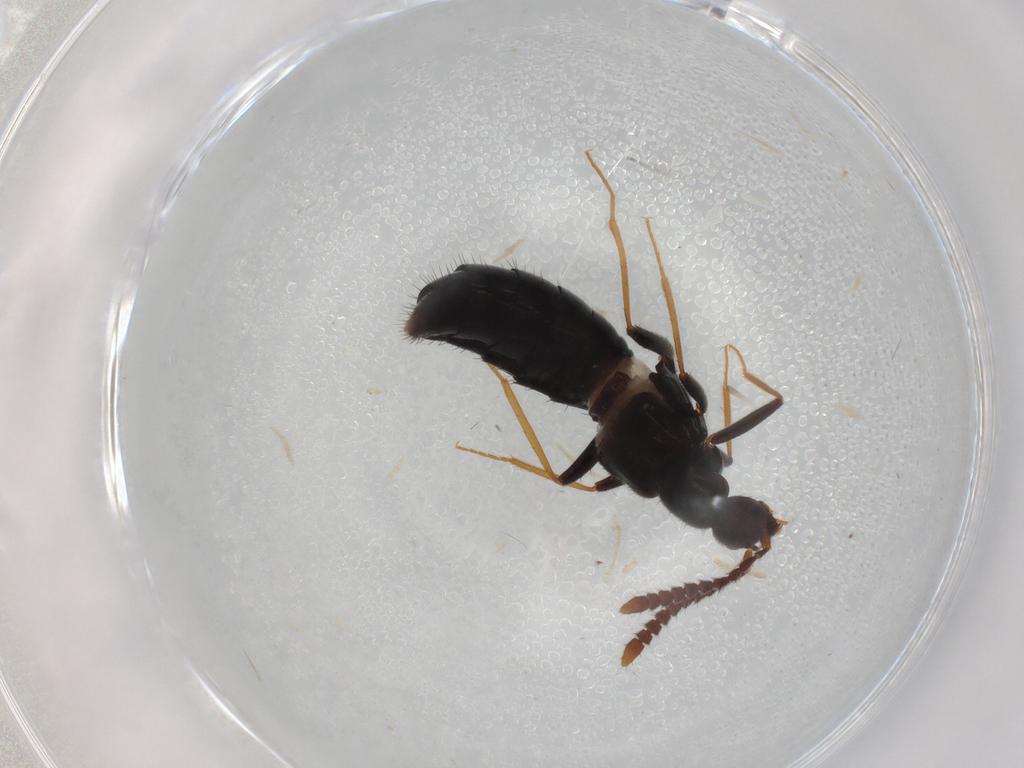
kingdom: Animalia
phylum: Arthropoda
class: Insecta
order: Coleoptera
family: Staphylinidae
